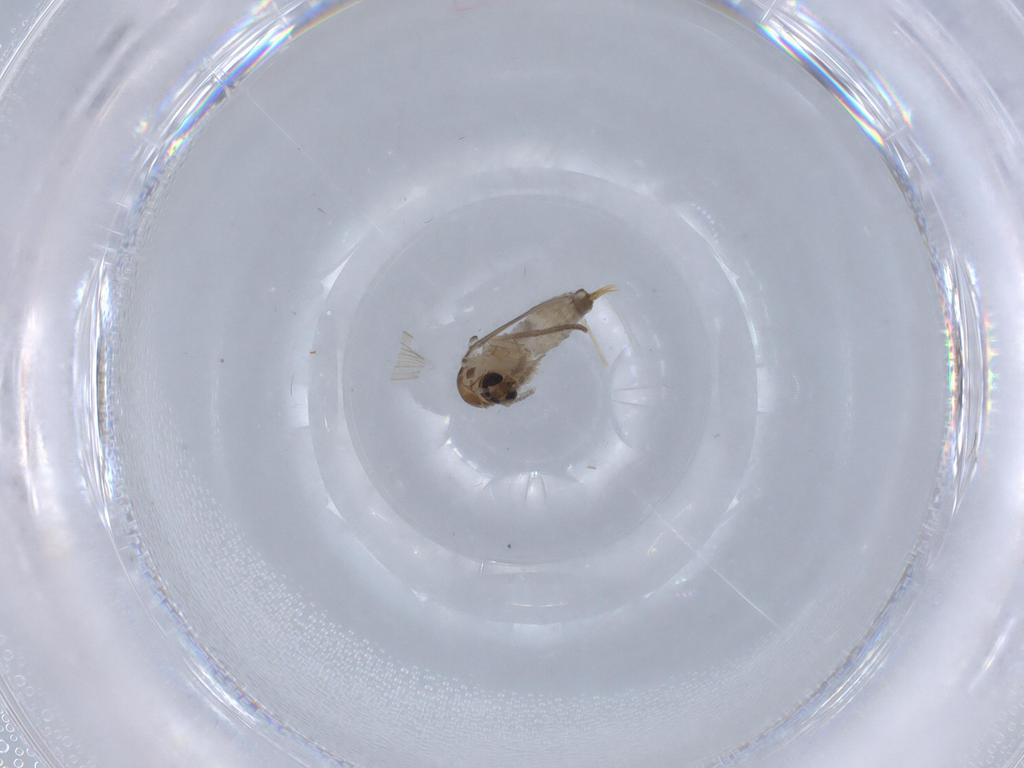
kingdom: Animalia
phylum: Arthropoda
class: Insecta
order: Diptera
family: Psychodidae
